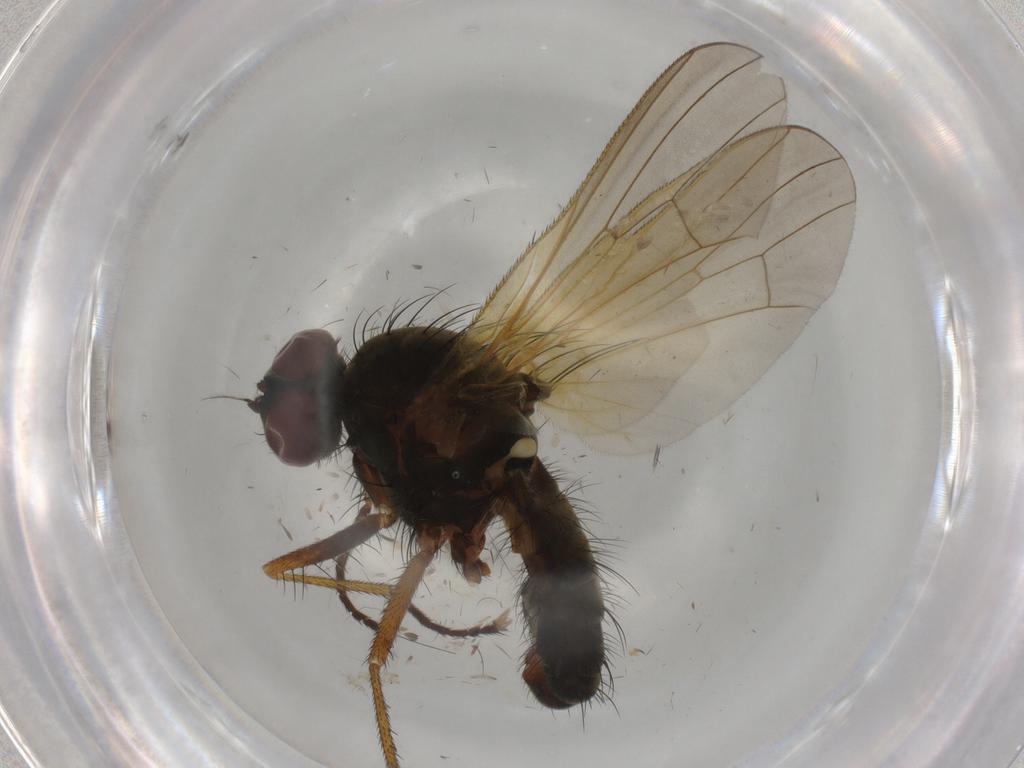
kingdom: Animalia
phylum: Arthropoda
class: Insecta
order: Diptera
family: Anthomyiidae
